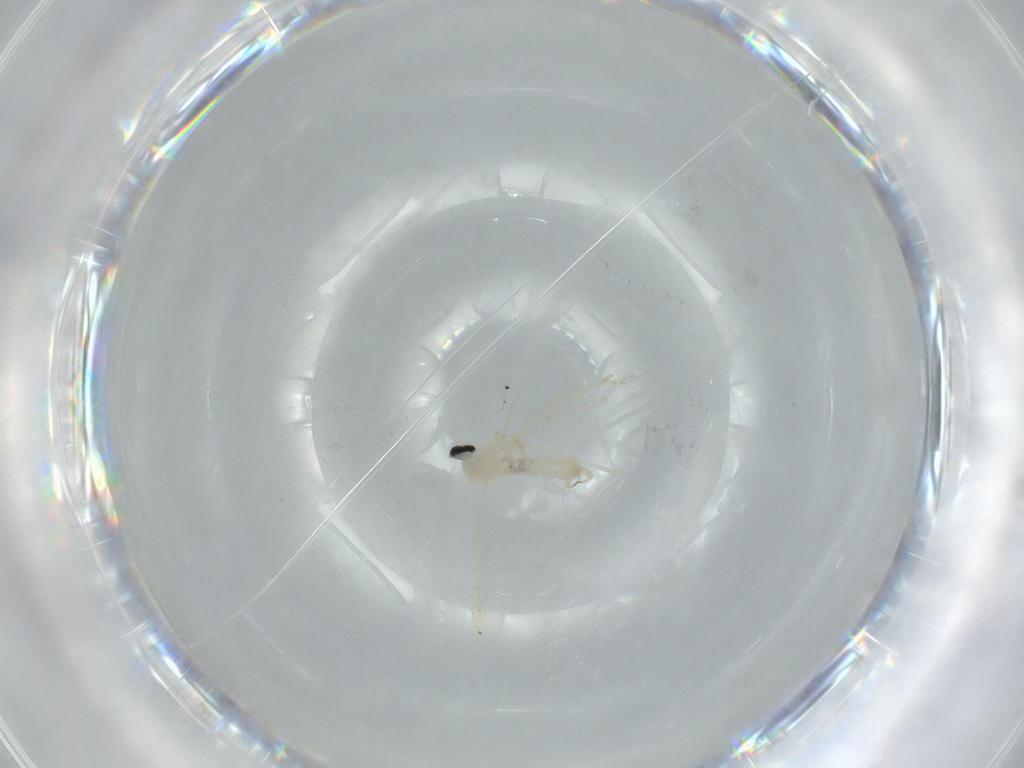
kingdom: Animalia
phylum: Arthropoda
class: Insecta
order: Diptera
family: Cecidomyiidae
